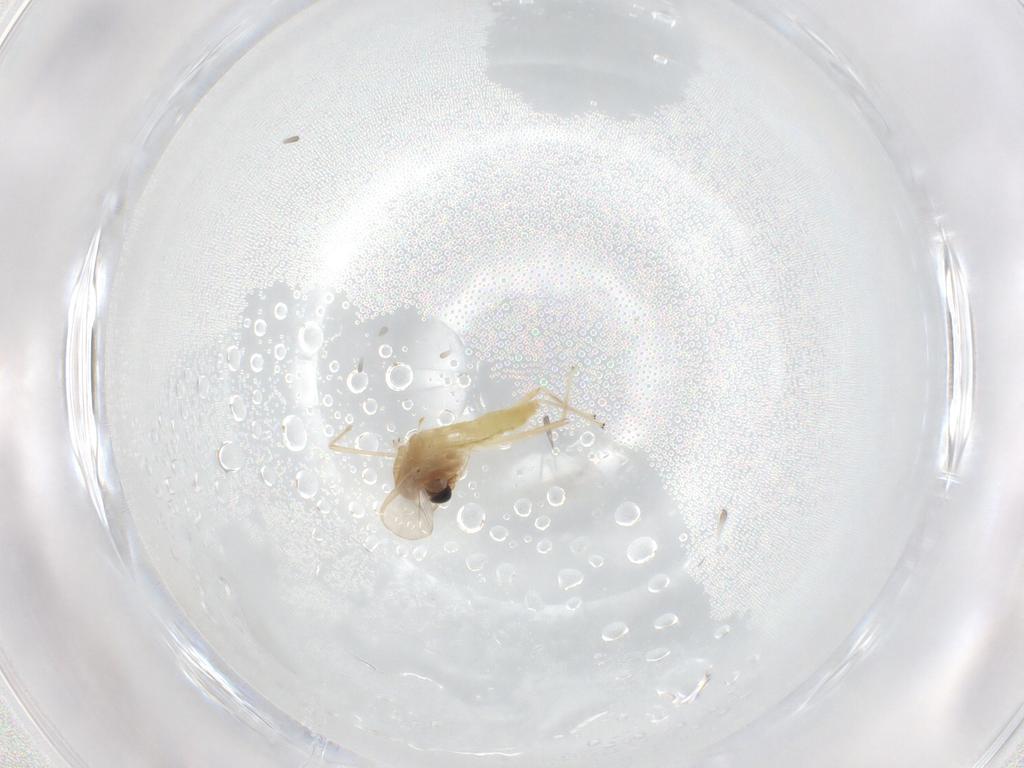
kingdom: Animalia
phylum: Arthropoda
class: Insecta
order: Diptera
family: Chironomidae
